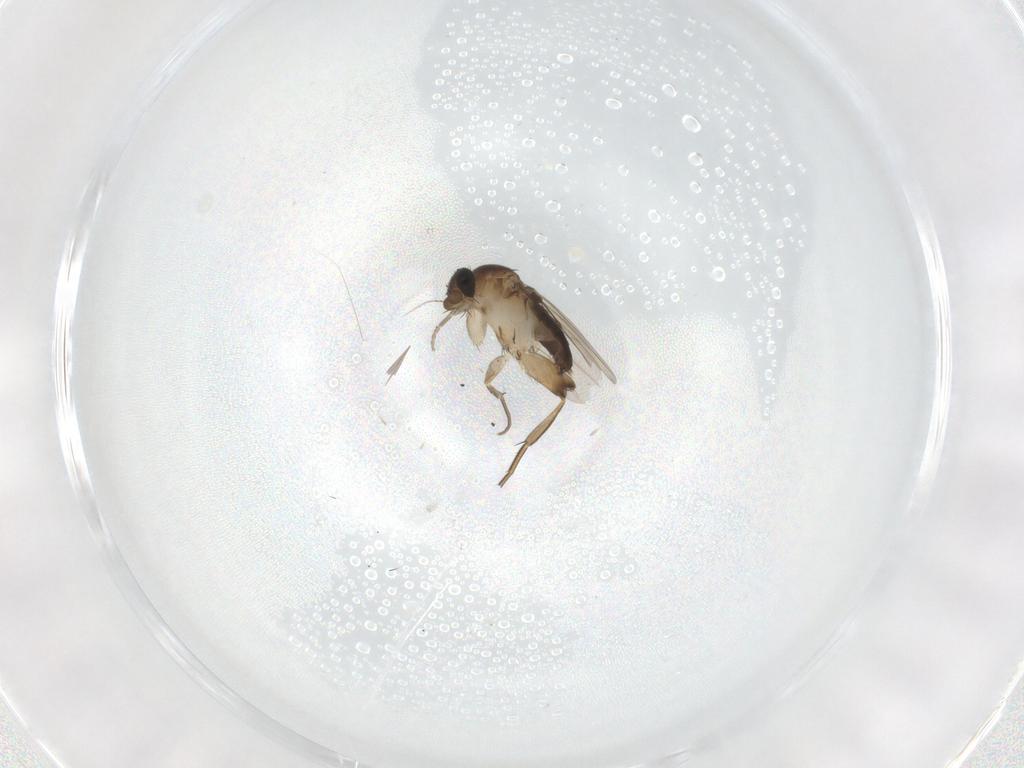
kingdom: Animalia
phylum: Arthropoda
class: Insecta
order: Diptera
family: Phoridae
